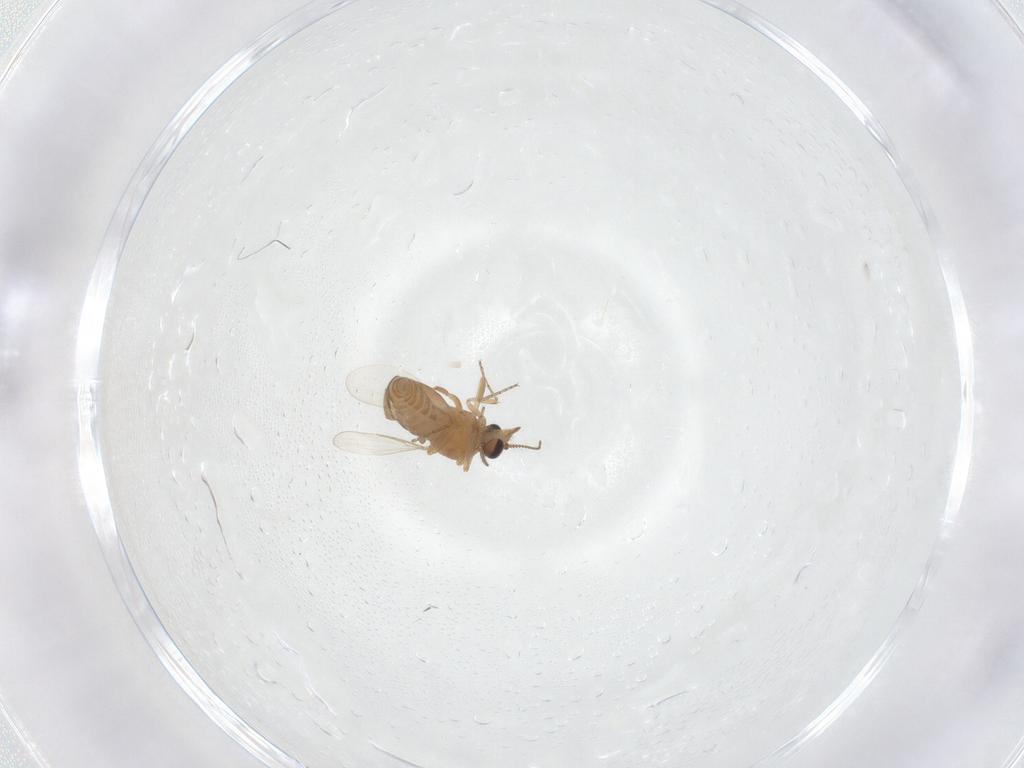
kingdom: Animalia
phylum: Arthropoda
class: Insecta
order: Diptera
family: Ceratopogonidae
